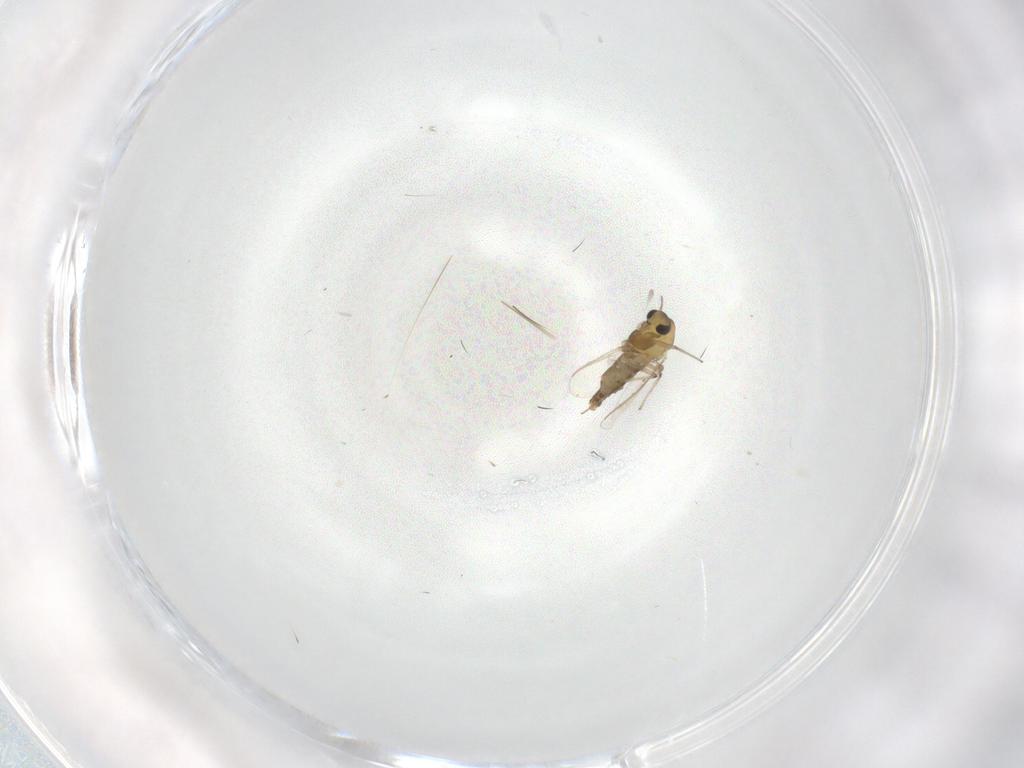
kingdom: Animalia
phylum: Arthropoda
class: Insecta
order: Diptera
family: Chironomidae
